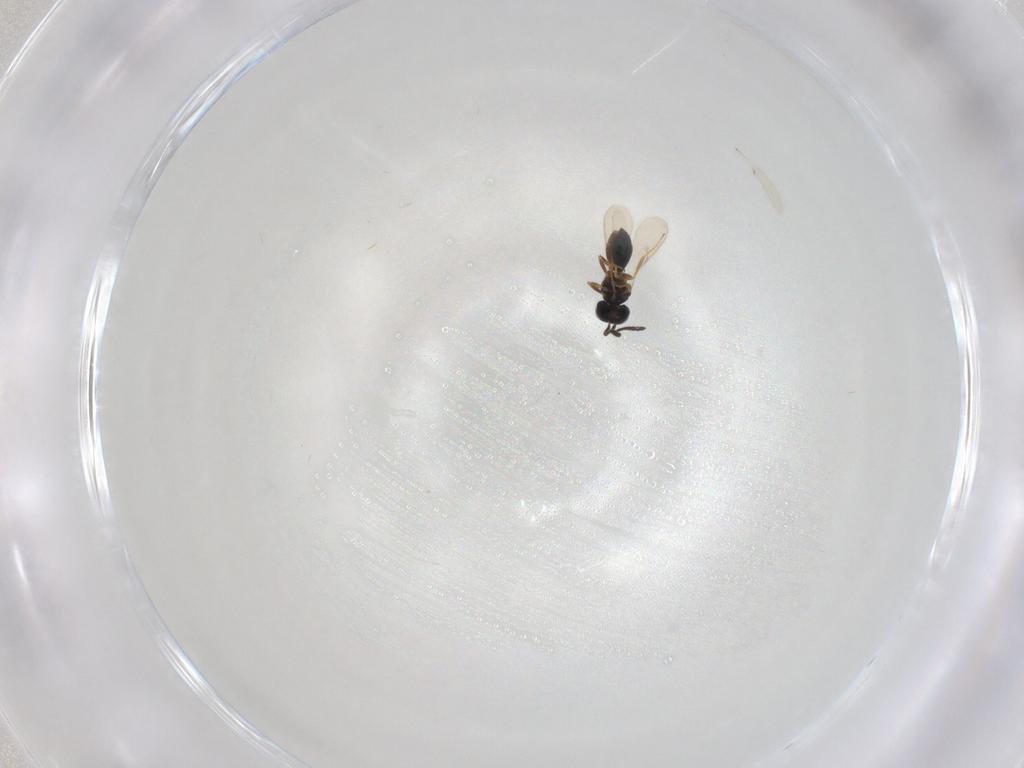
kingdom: Animalia
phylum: Arthropoda
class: Insecta
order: Hymenoptera
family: Scelionidae
